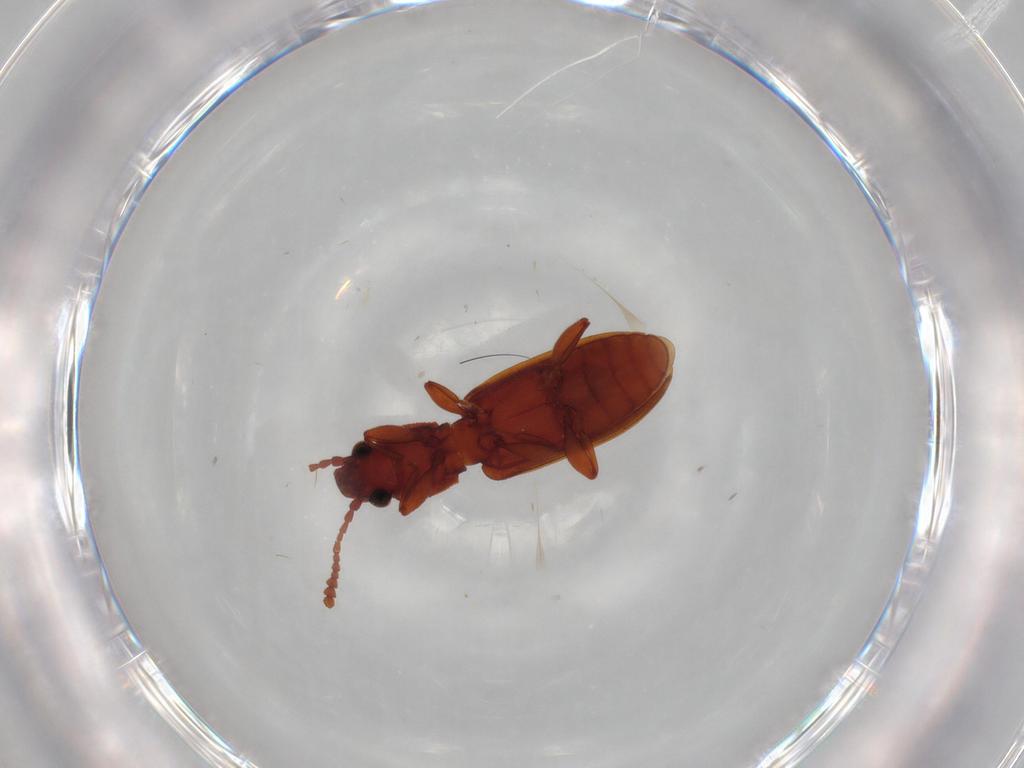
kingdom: Animalia
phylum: Arthropoda
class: Insecta
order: Coleoptera
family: Silvanidae
